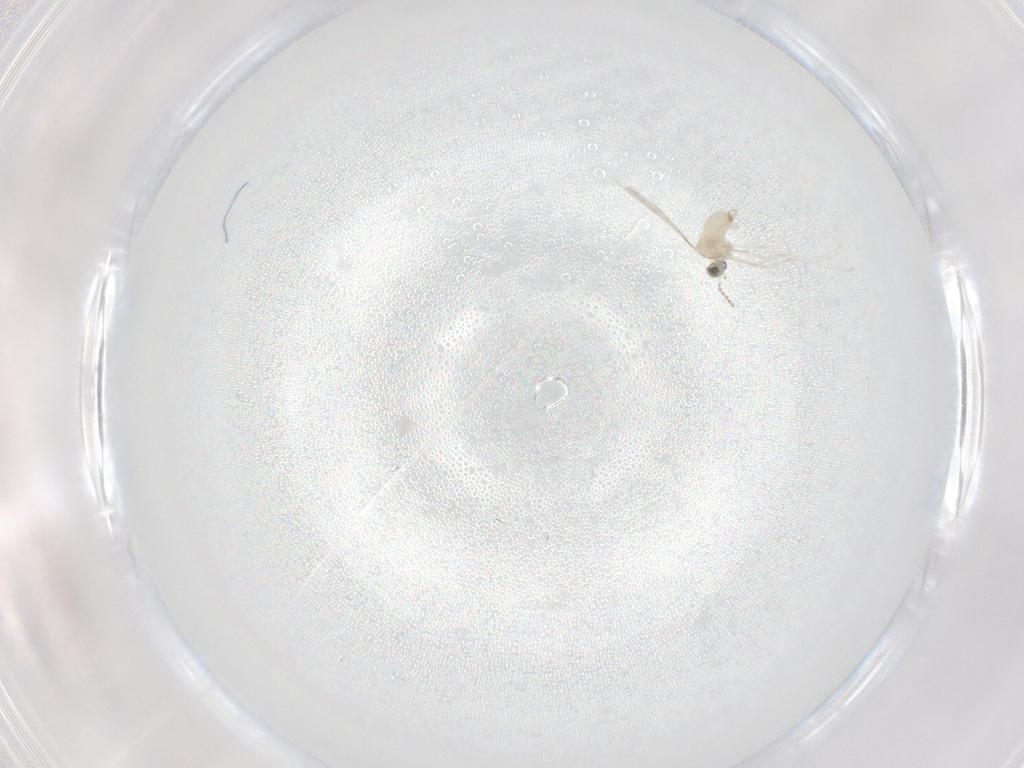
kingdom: Animalia
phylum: Arthropoda
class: Insecta
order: Diptera
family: Cecidomyiidae
